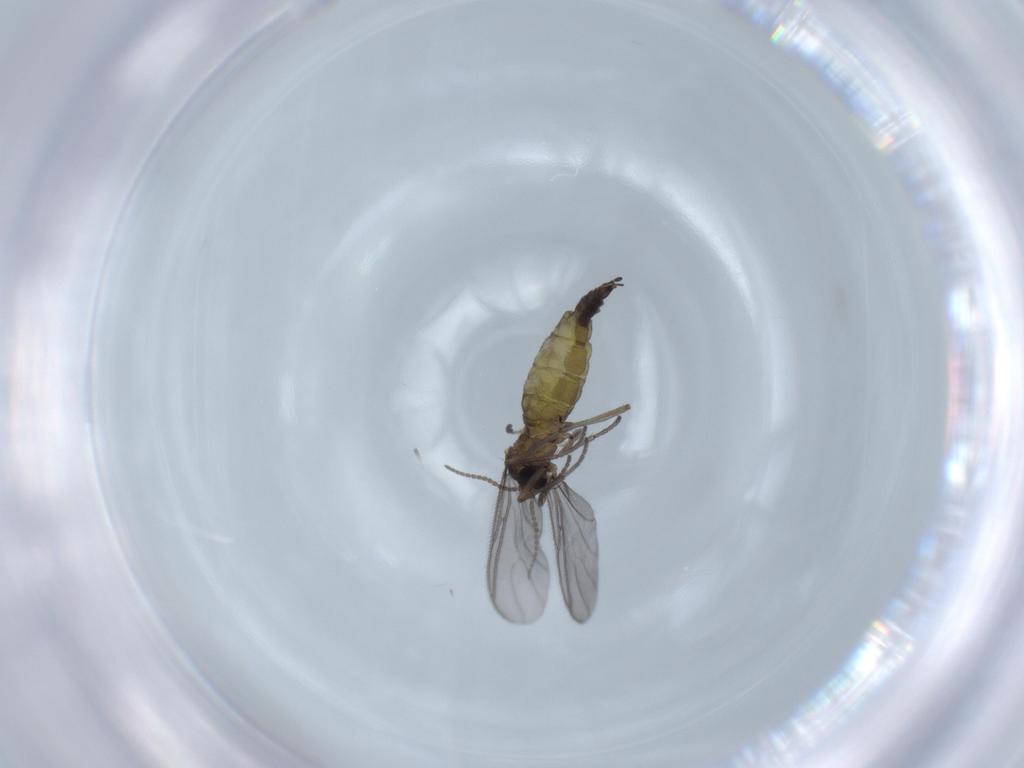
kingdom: Animalia
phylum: Arthropoda
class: Insecta
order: Diptera
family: Sciaridae
